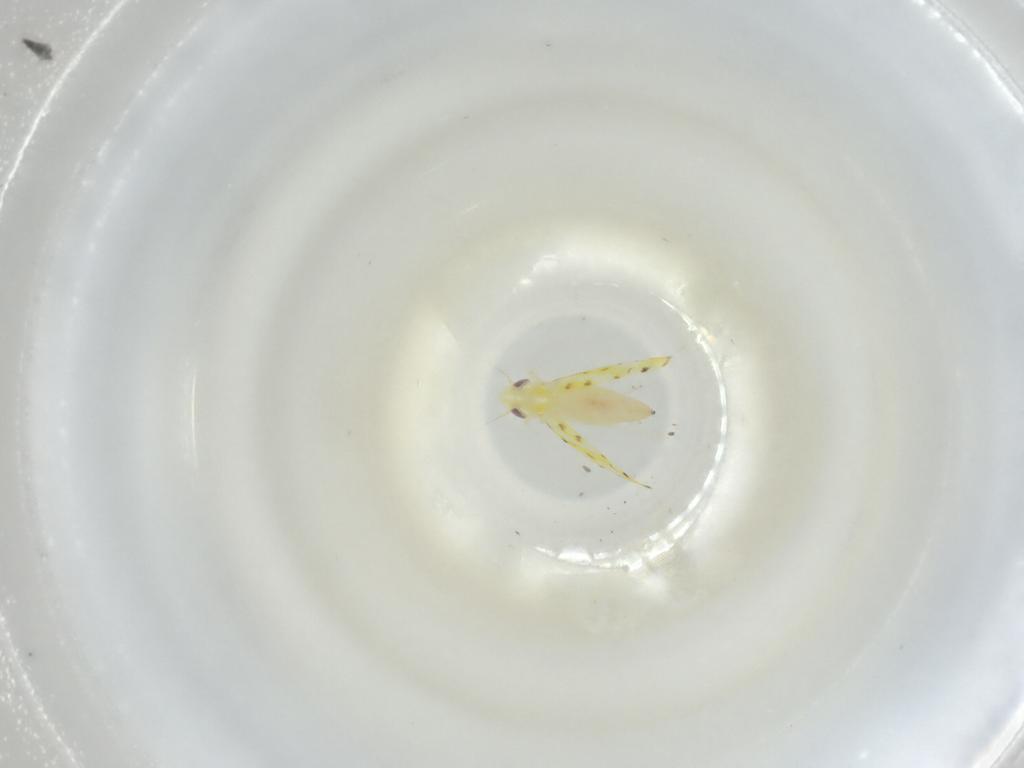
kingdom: Animalia
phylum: Arthropoda
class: Insecta
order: Hemiptera
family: Cicadellidae
